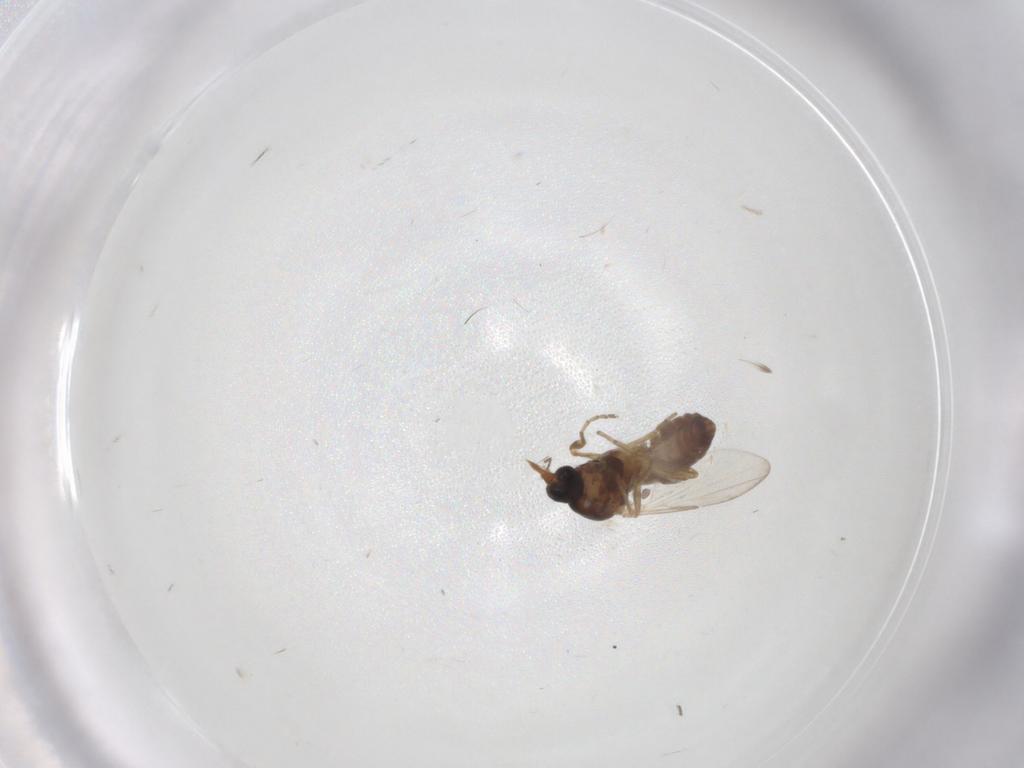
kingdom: Animalia
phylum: Arthropoda
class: Insecta
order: Diptera
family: Ceratopogonidae
